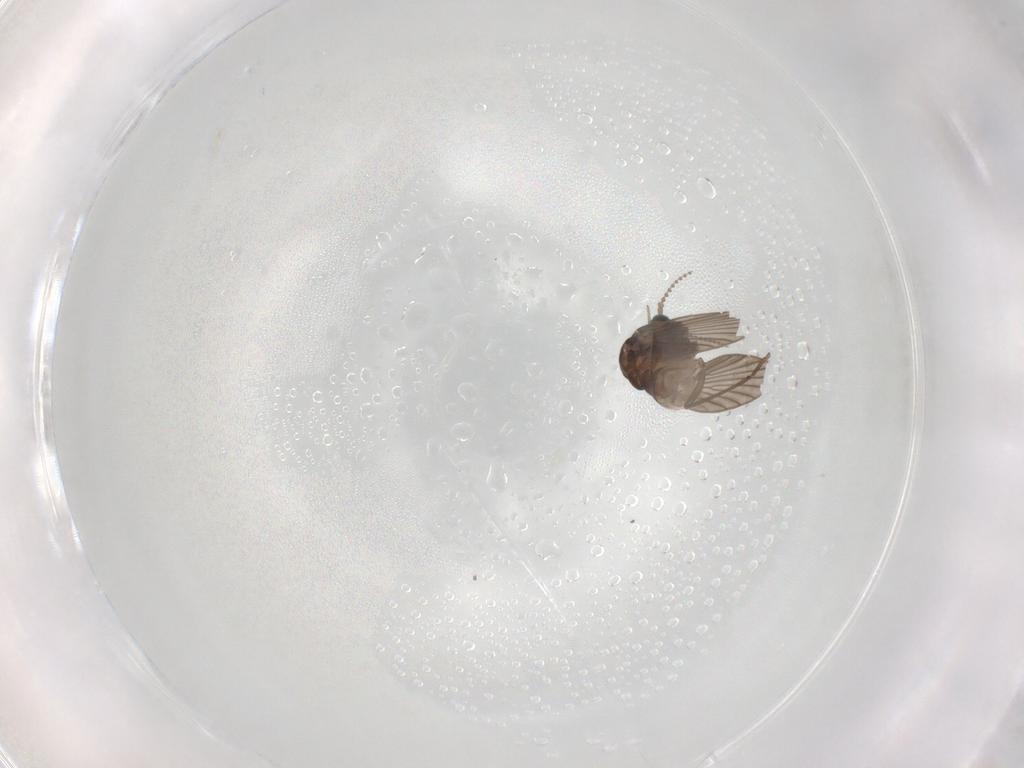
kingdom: Animalia
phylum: Arthropoda
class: Insecta
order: Diptera
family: Psychodidae
